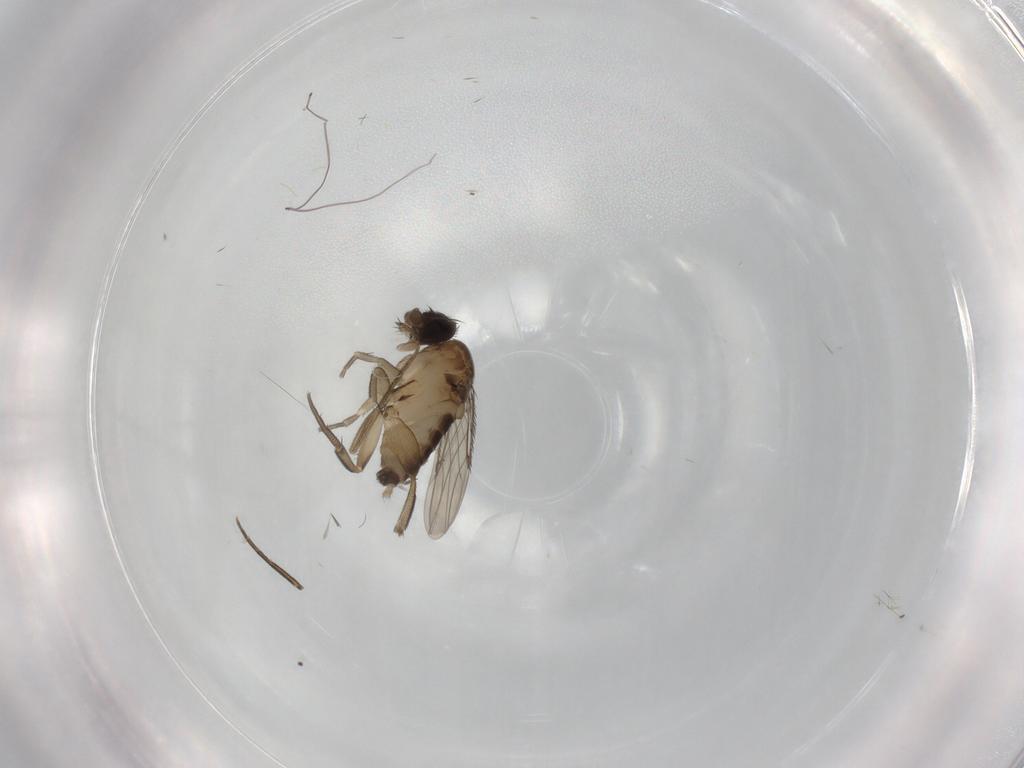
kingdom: Animalia
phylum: Arthropoda
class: Insecta
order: Diptera
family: Phoridae
